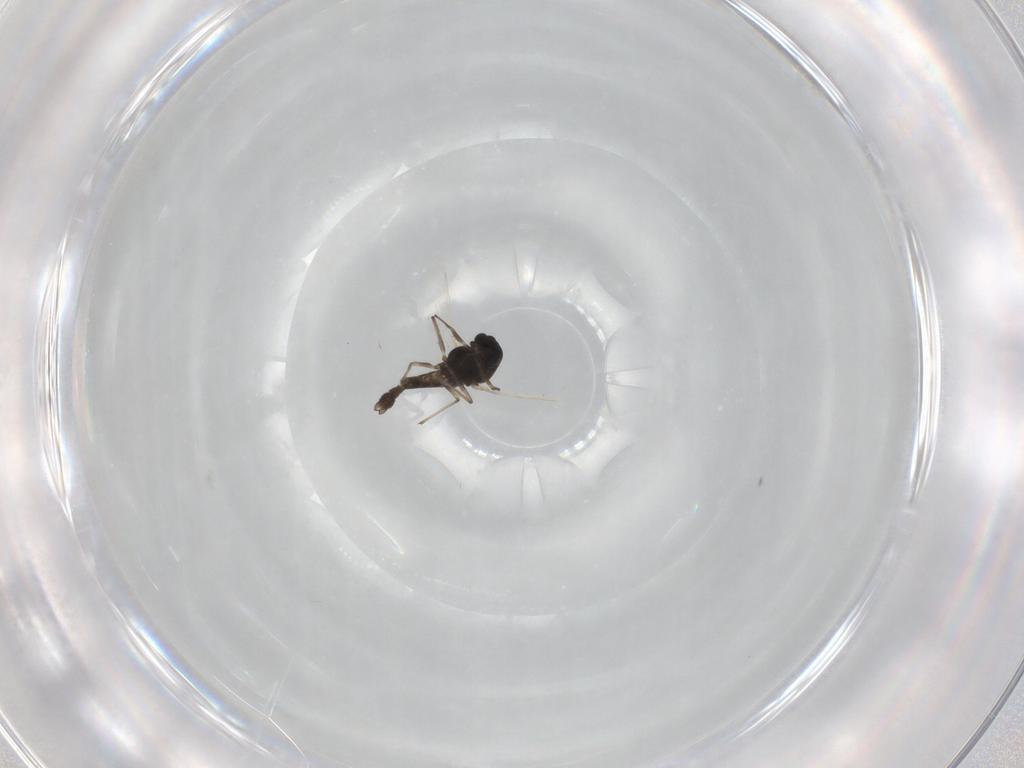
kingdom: Animalia
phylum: Arthropoda
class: Insecta
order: Diptera
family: Chironomidae
